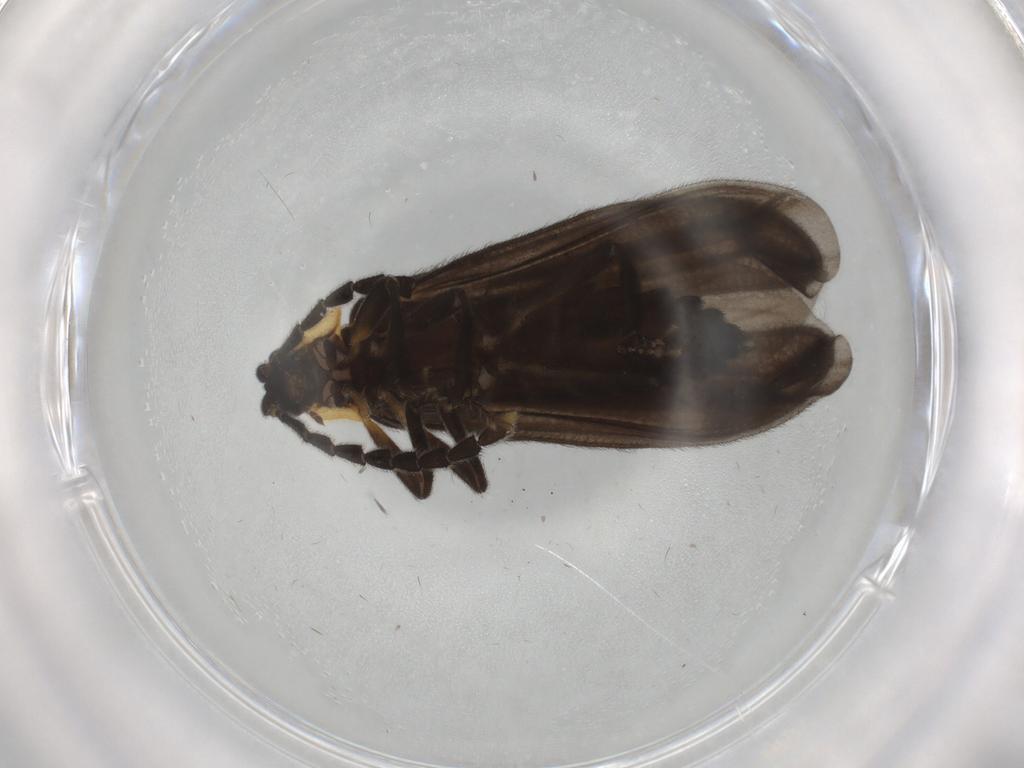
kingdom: Animalia
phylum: Arthropoda
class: Insecta
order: Coleoptera
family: Lycidae
